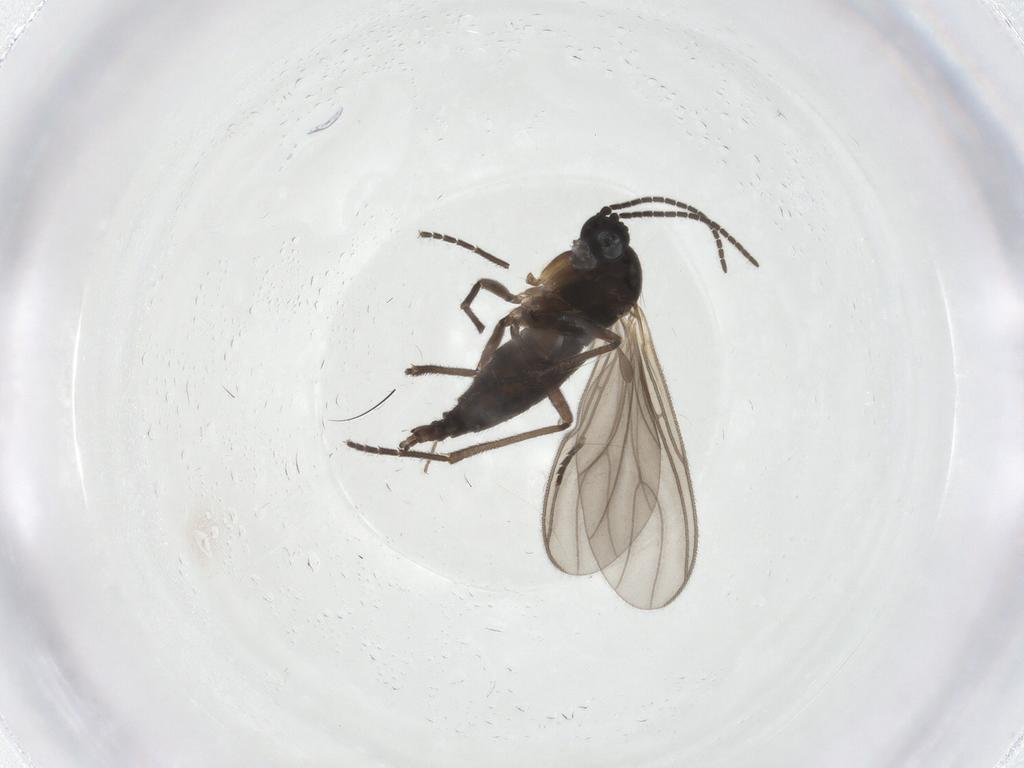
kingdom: Animalia
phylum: Arthropoda
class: Insecta
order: Diptera
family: Sciaridae
